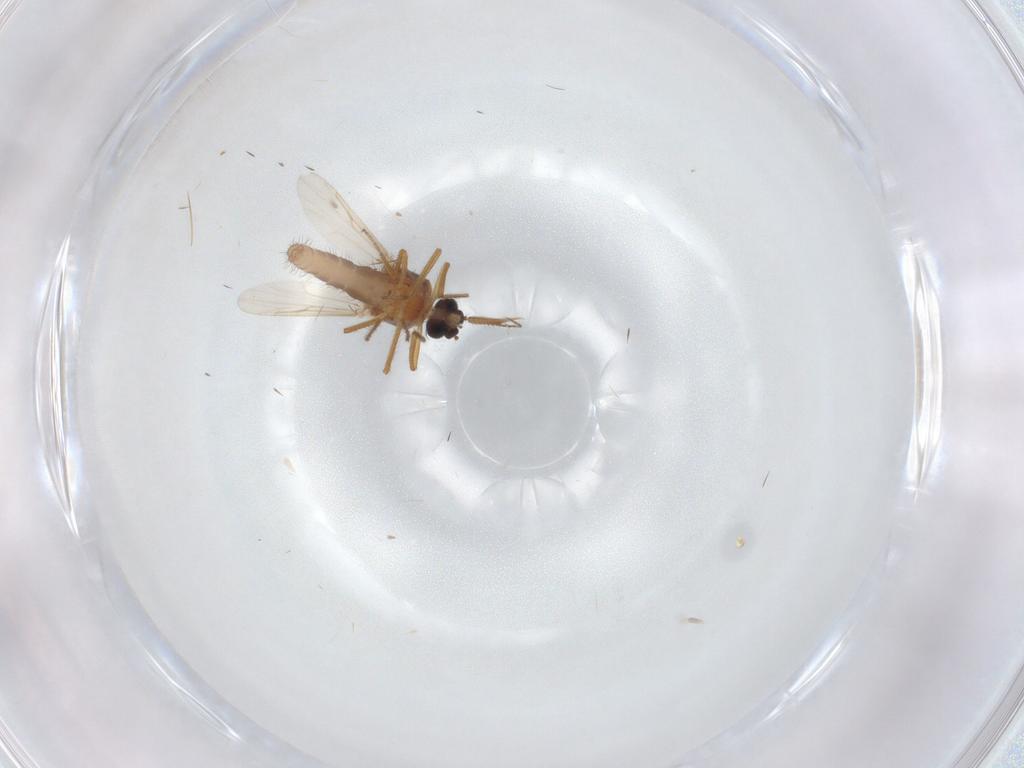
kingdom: Animalia
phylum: Arthropoda
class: Insecta
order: Diptera
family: Ceratopogonidae
